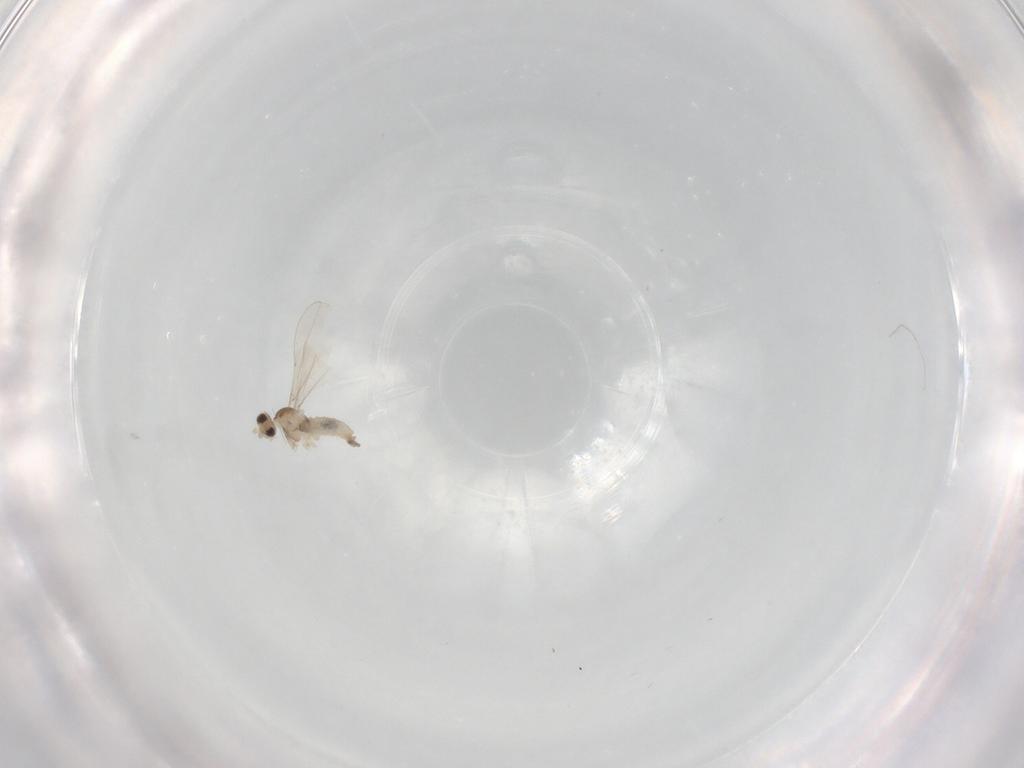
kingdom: Animalia
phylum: Arthropoda
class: Insecta
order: Diptera
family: Cecidomyiidae
